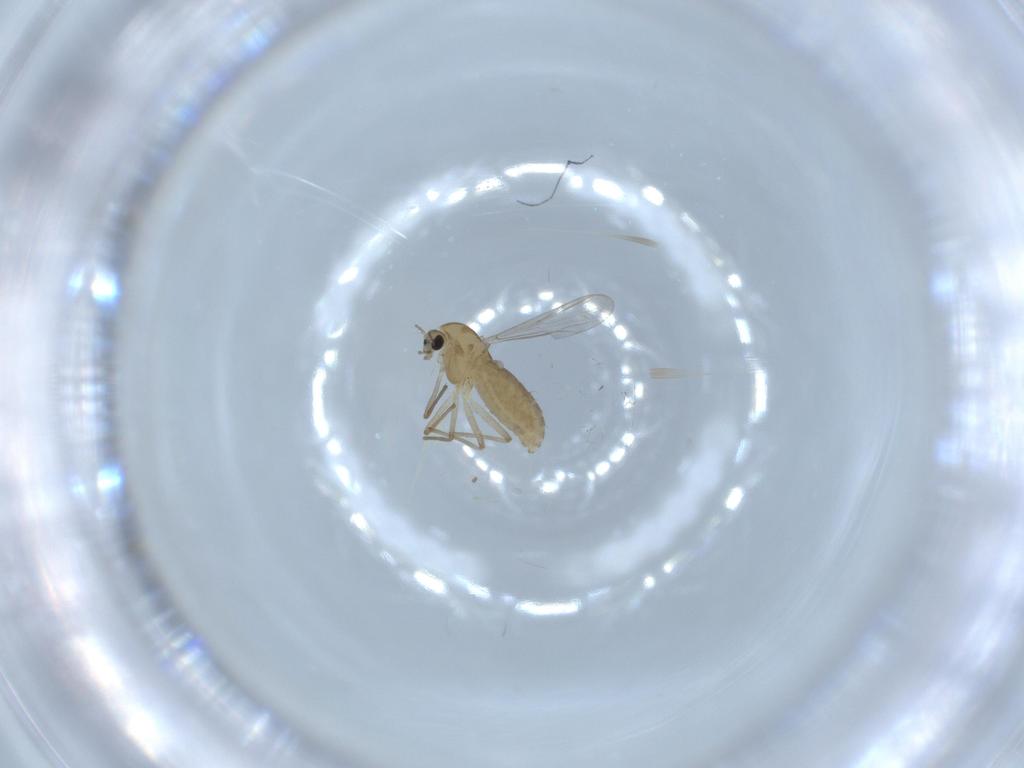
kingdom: Animalia
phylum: Arthropoda
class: Insecta
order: Diptera
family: Chironomidae
